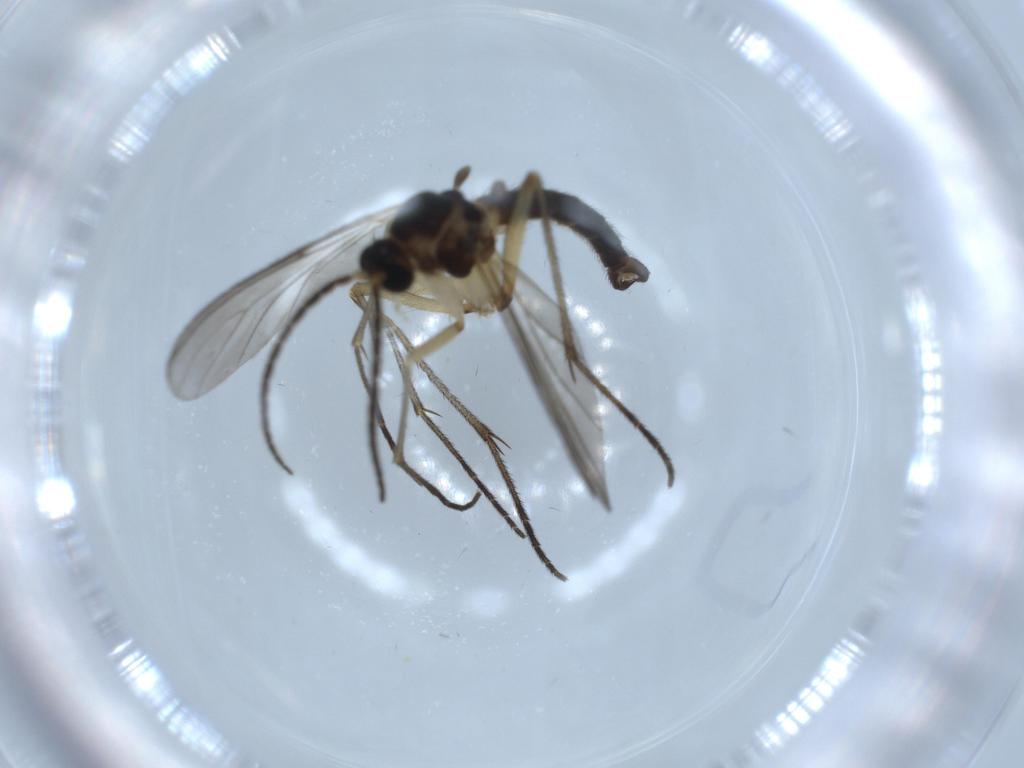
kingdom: Animalia
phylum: Arthropoda
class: Insecta
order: Diptera
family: Sciaridae
